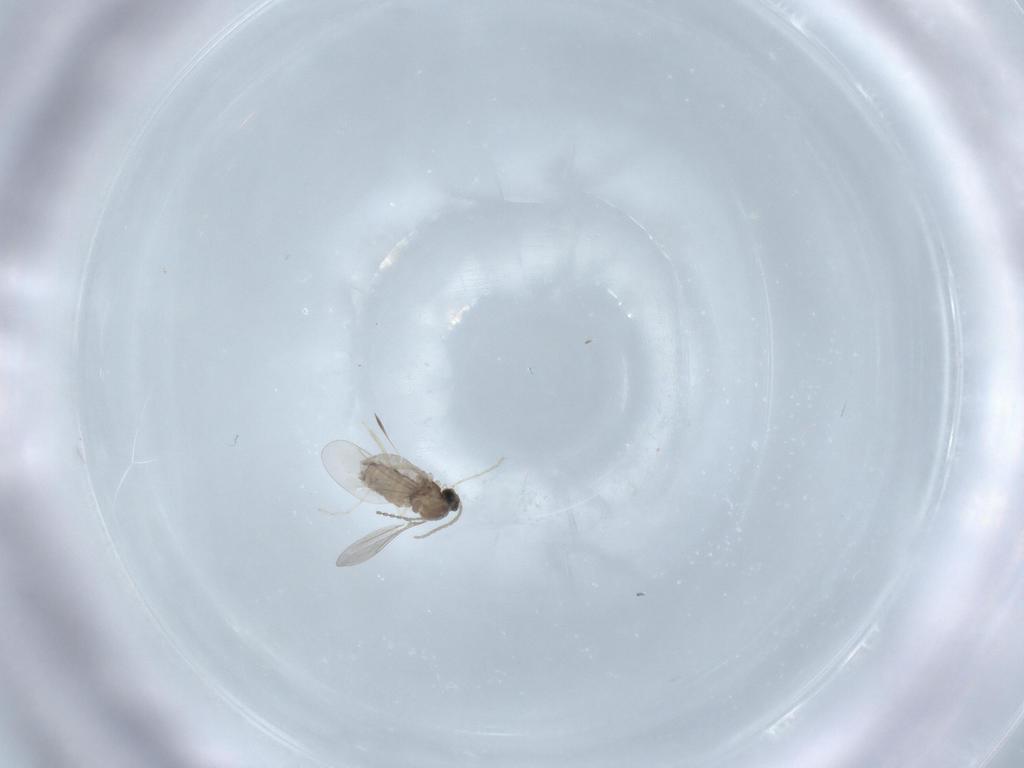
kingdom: Animalia
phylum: Arthropoda
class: Insecta
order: Diptera
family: Cecidomyiidae
